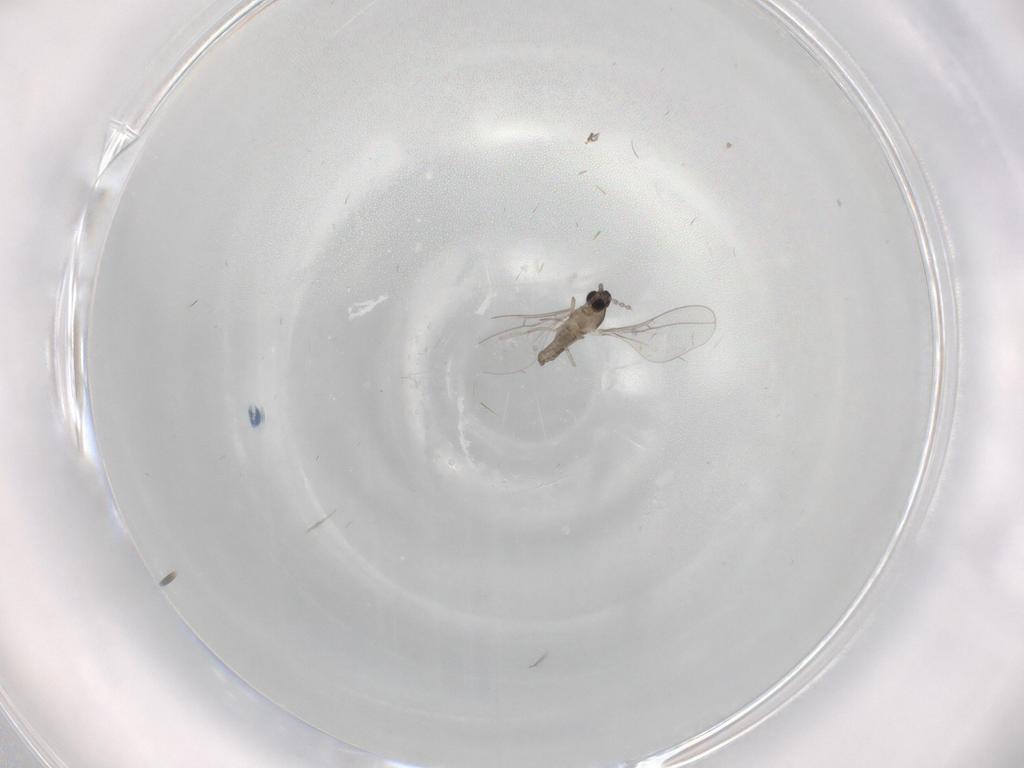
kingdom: Animalia
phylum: Arthropoda
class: Insecta
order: Diptera
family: Cecidomyiidae
